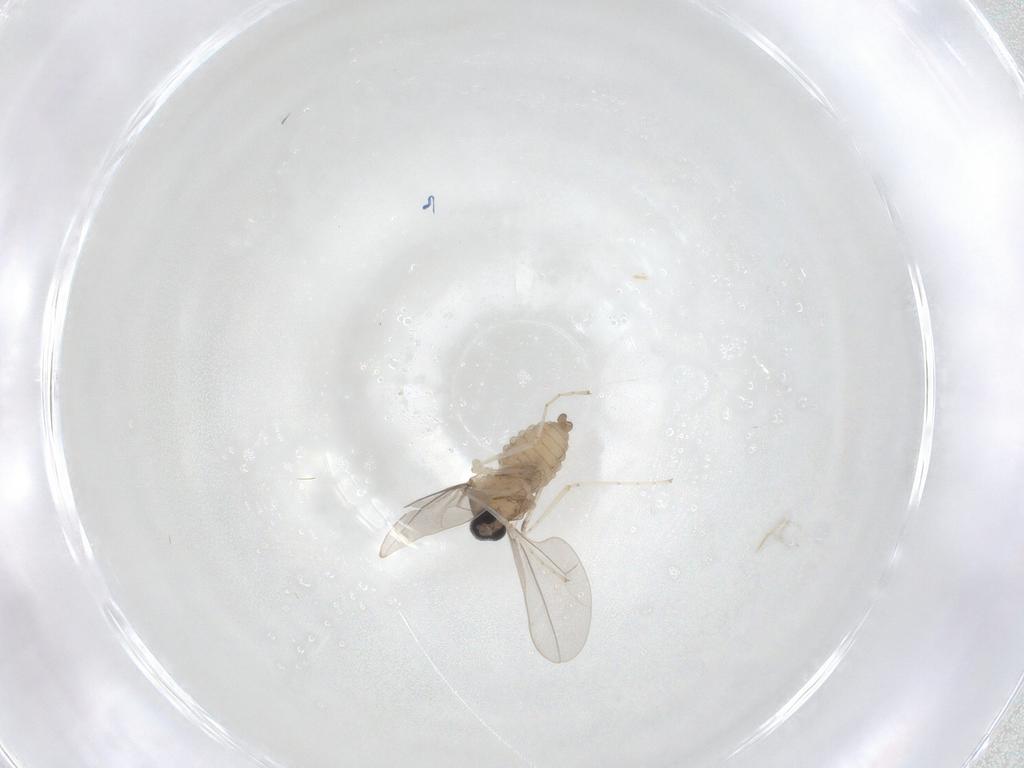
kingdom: Animalia
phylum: Arthropoda
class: Insecta
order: Diptera
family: Cecidomyiidae
